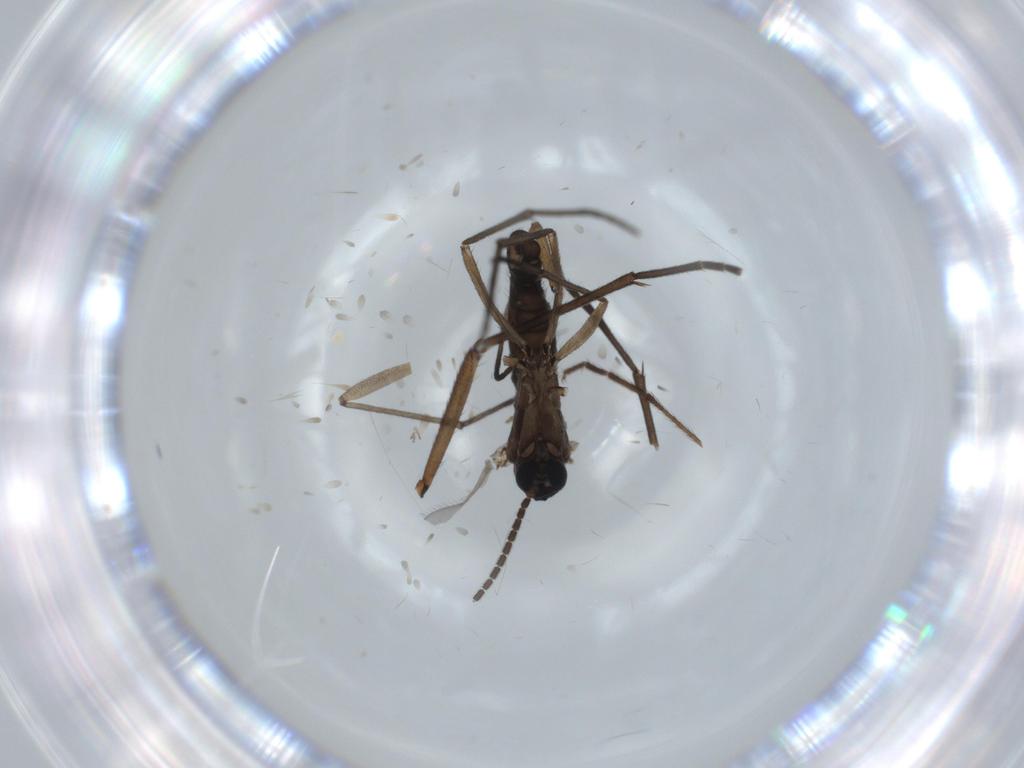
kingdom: Animalia
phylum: Arthropoda
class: Insecta
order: Diptera
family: Sciaridae
